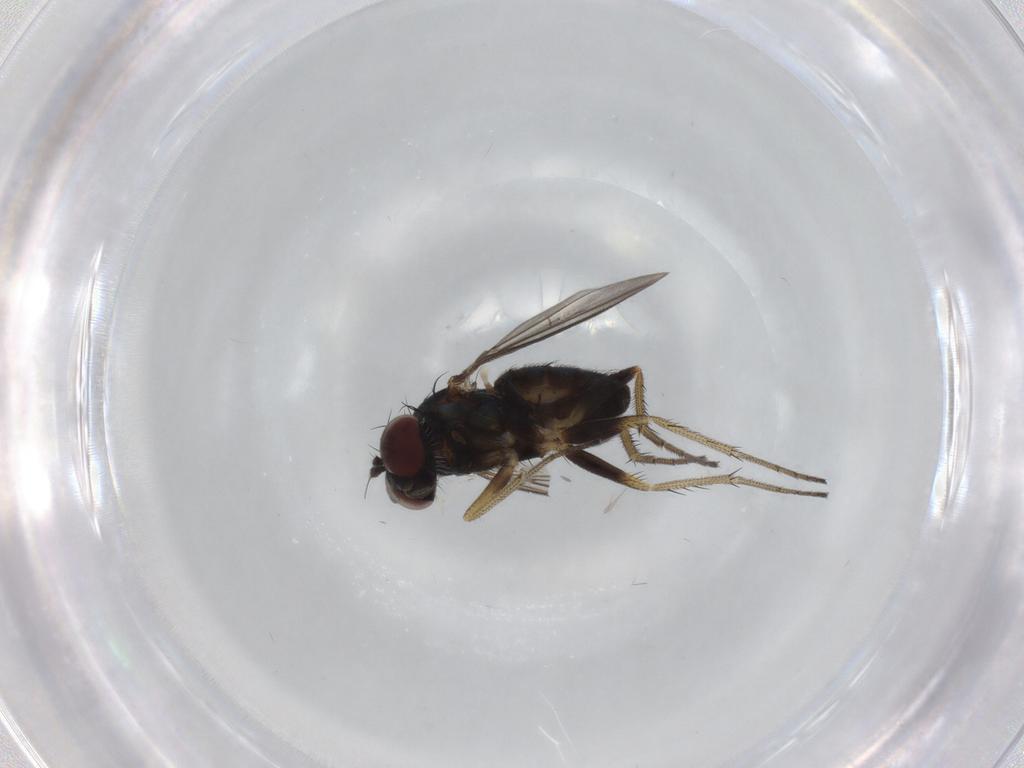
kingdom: Animalia
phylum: Arthropoda
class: Insecta
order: Diptera
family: Cecidomyiidae
